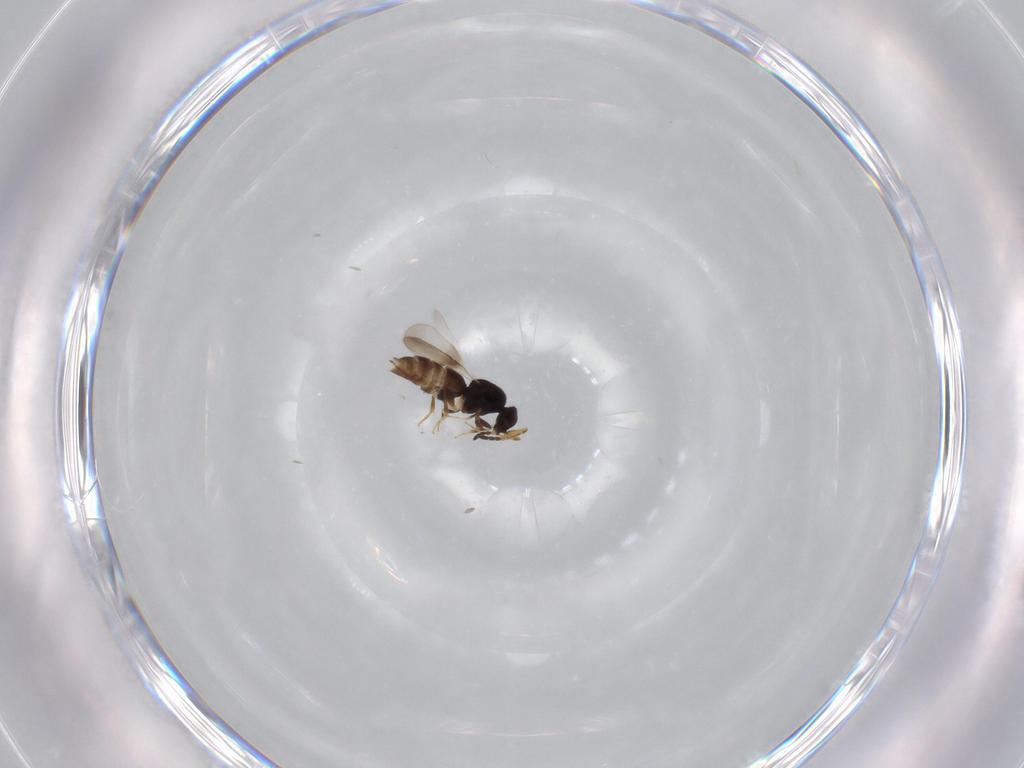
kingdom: Animalia
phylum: Arthropoda
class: Insecta
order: Hymenoptera
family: Ceraphronidae
